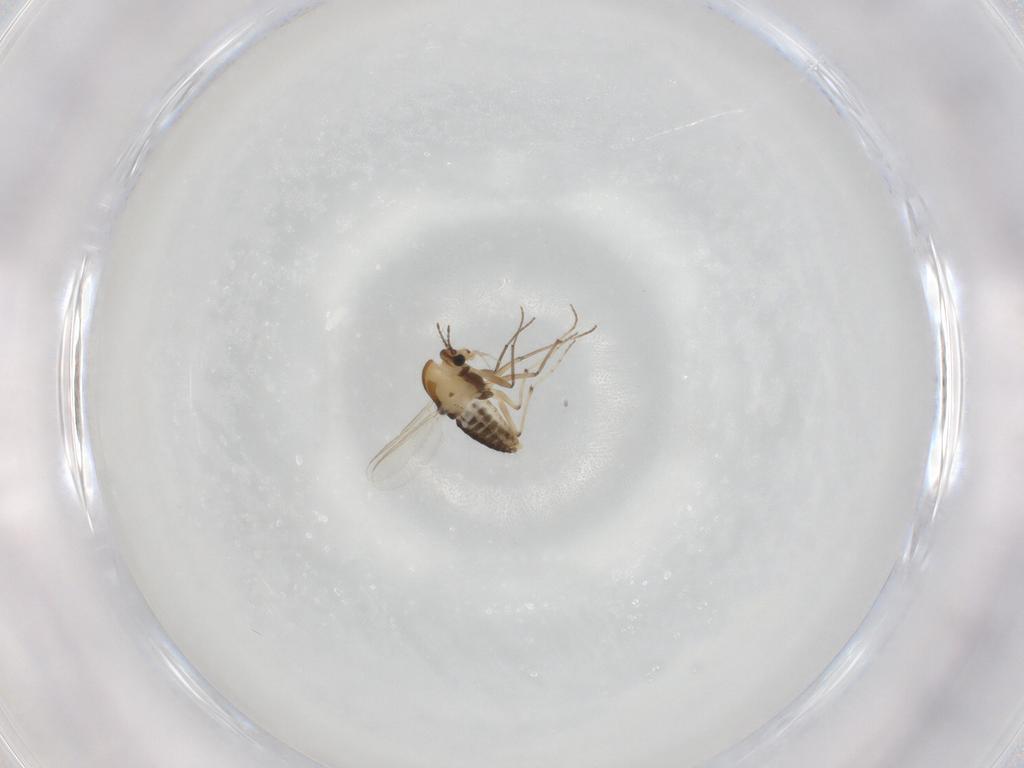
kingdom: Animalia
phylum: Arthropoda
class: Insecta
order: Diptera
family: Chironomidae
